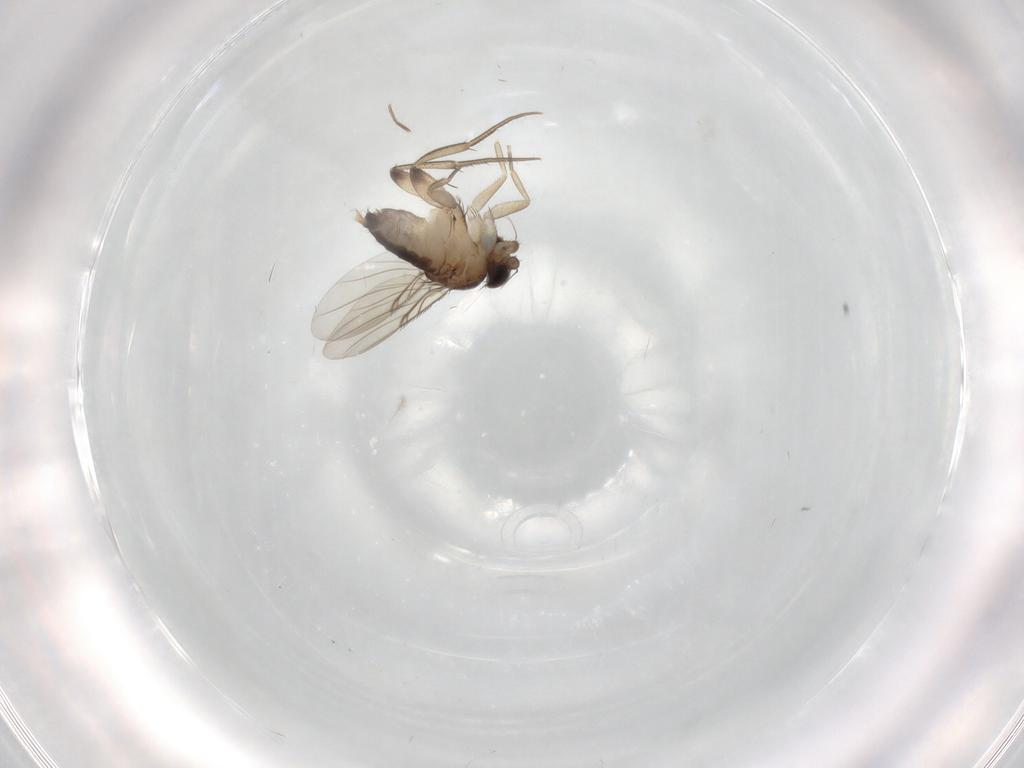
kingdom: Animalia
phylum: Arthropoda
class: Insecta
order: Diptera
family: Phoridae
